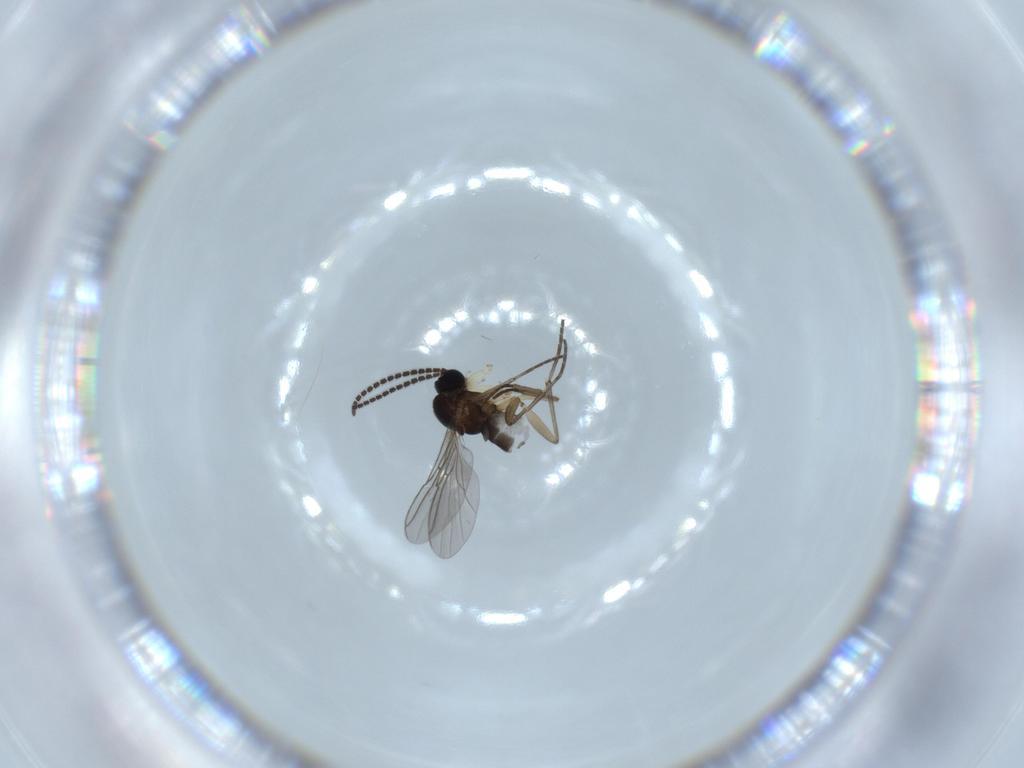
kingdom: Animalia
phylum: Arthropoda
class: Insecta
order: Diptera
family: Sciaridae
